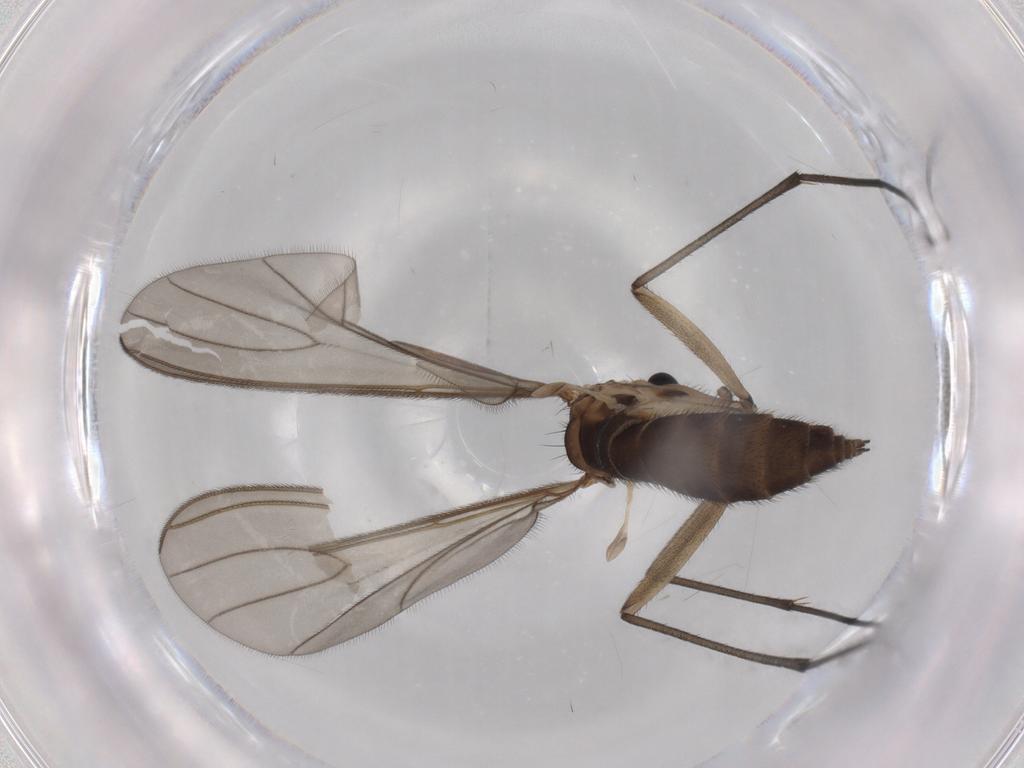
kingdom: Animalia
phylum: Arthropoda
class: Insecta
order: Diptera
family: Sciaridae
